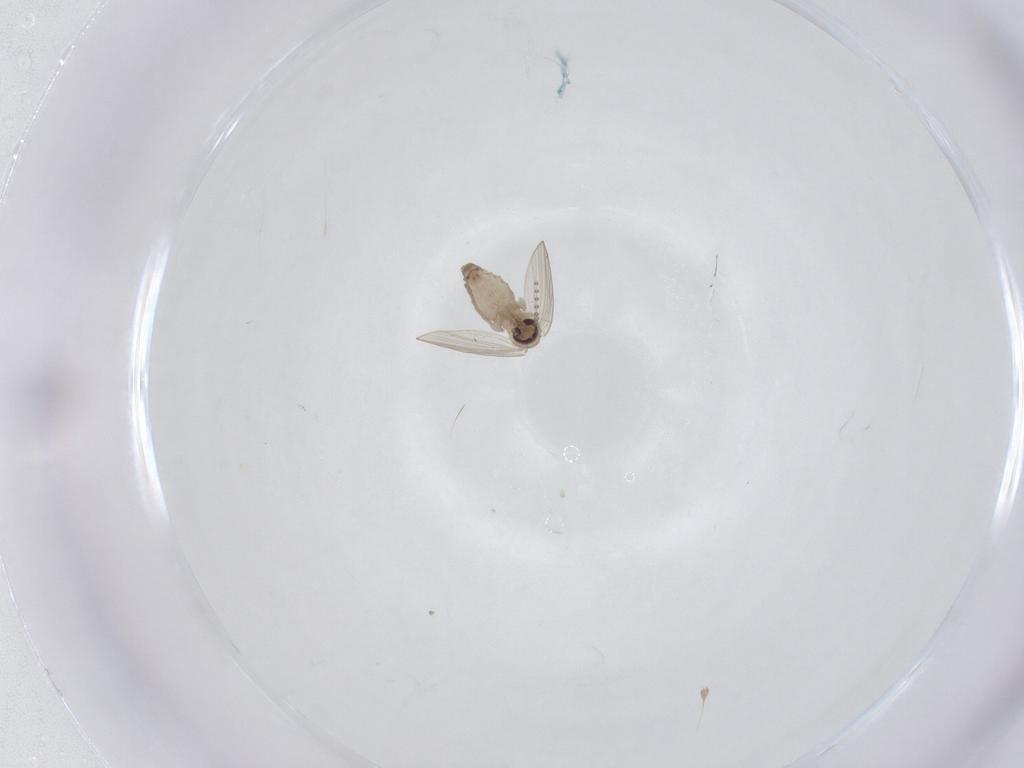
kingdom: Animalia
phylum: Arthropoda
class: Insecta
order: Diptera
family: Psychodidae
